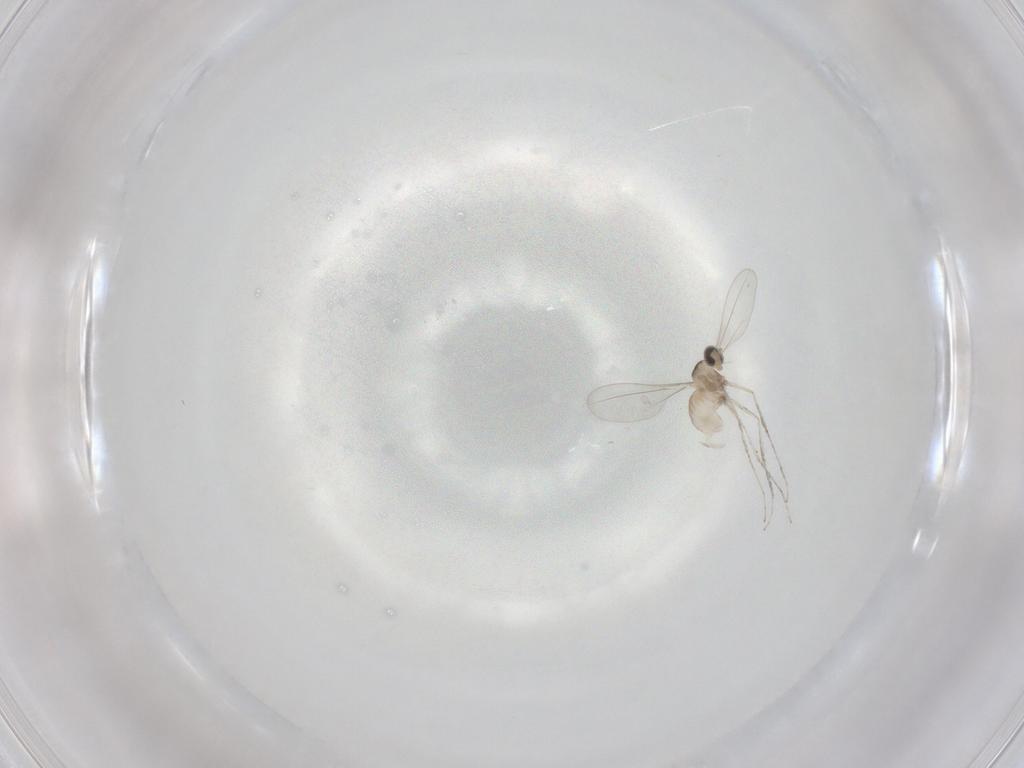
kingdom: Animalia
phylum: Arthropoda
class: Insecta
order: Diptera
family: Cecidomyiidae
